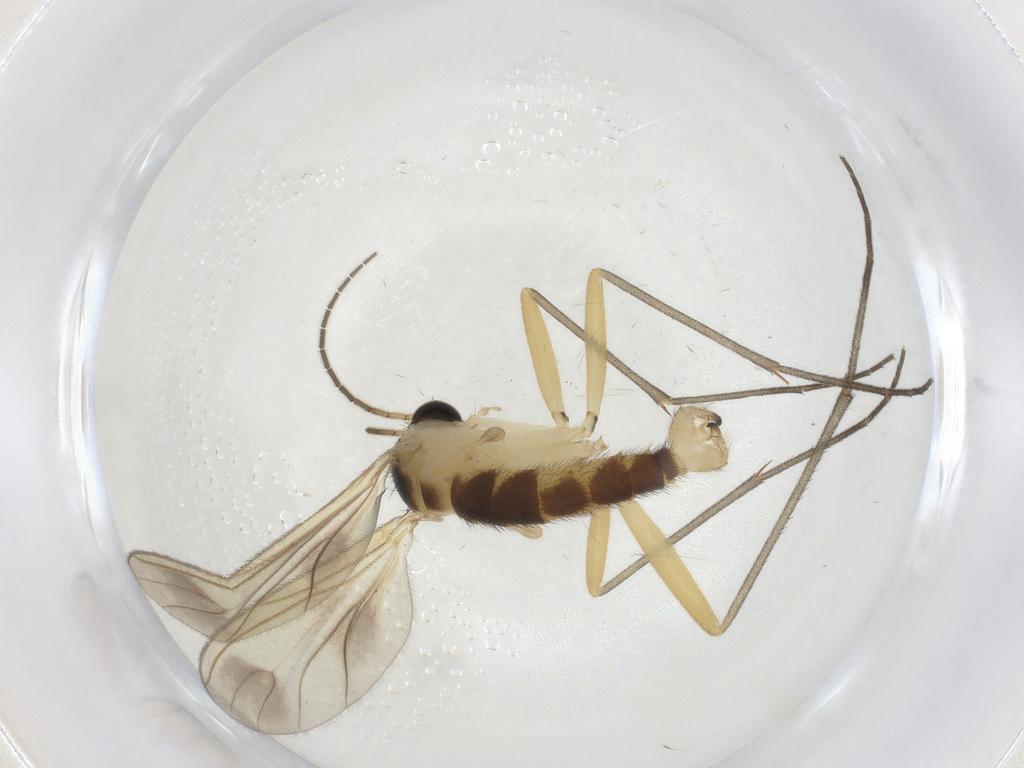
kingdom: Animalia
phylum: Arthropoda
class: Insecta
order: Diptera
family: Sciaridae
